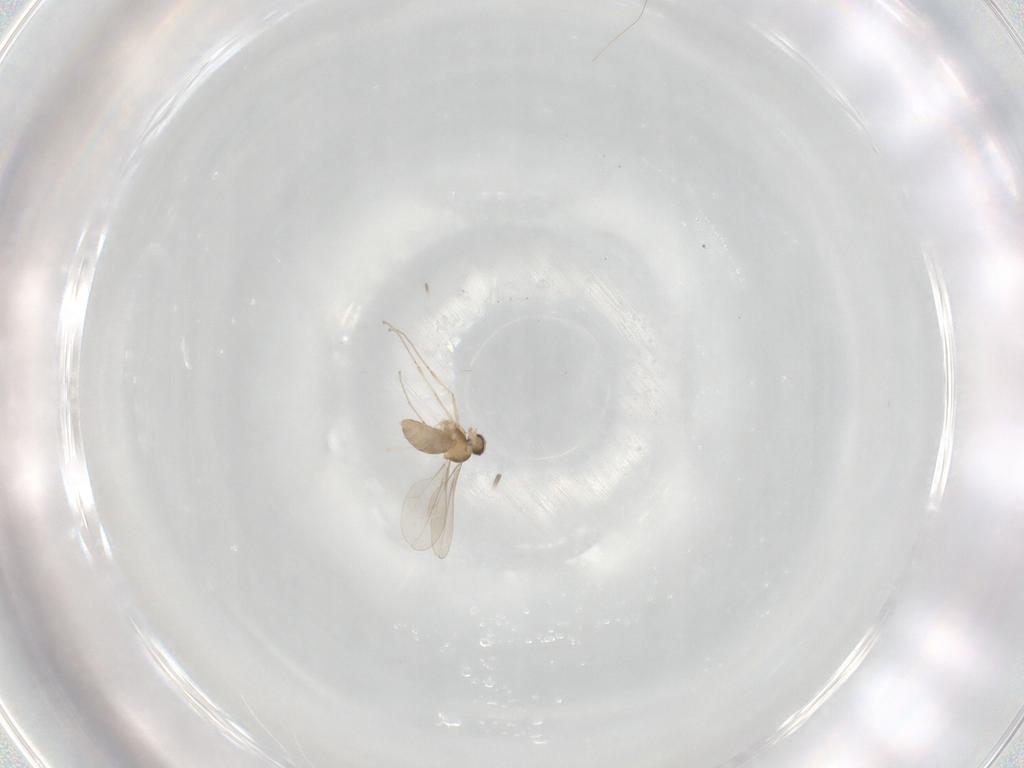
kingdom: Animalia
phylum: Arthropoda
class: Insecta
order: Diptera
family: Cecidomyiidae
